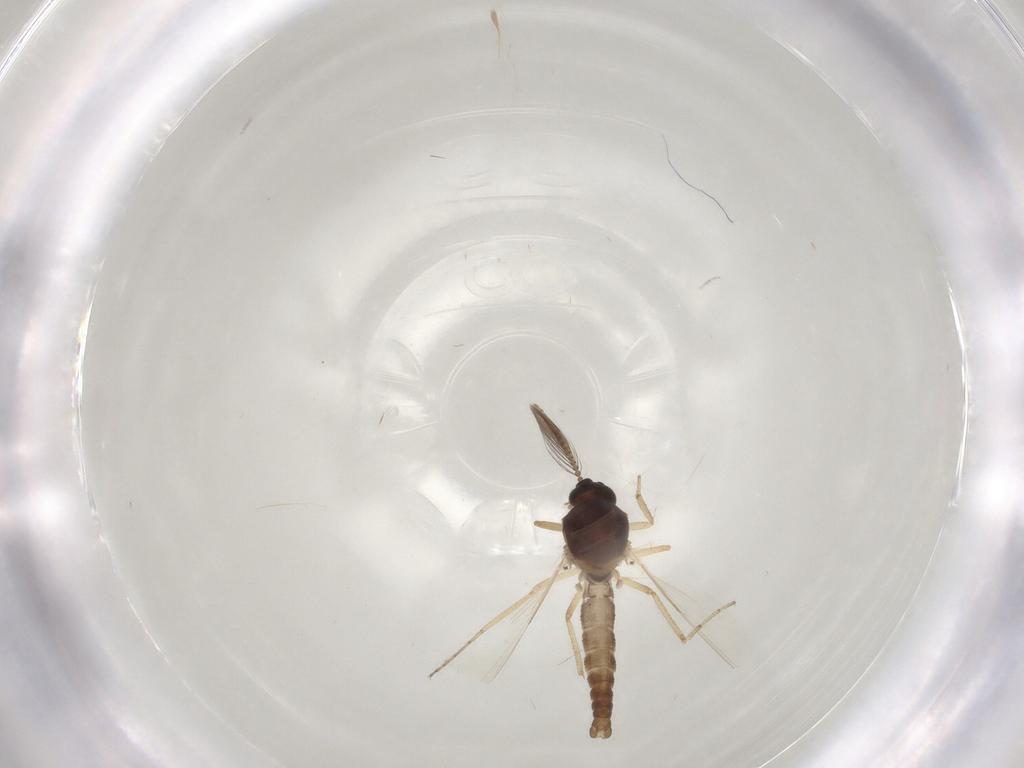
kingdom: Animalia
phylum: Arthropoda
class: Insecta
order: Diptera
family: Ceratopogonidae
